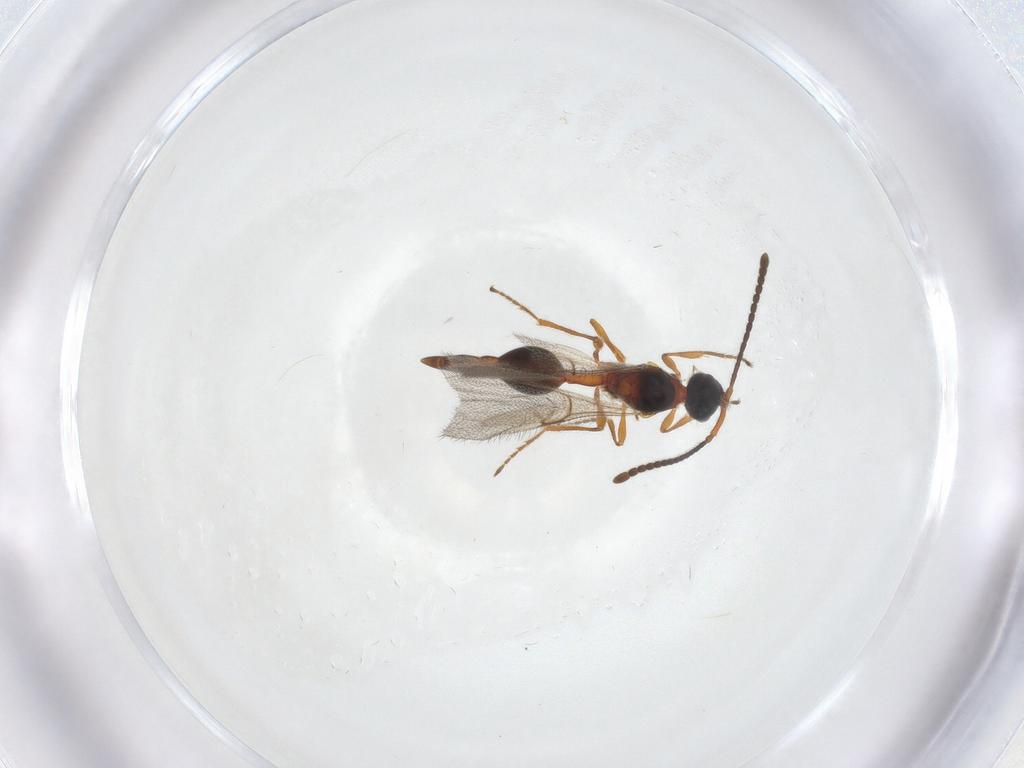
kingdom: Animalia
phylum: Arthropoda
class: Insecta
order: Hymenoptera
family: Diapriidae
